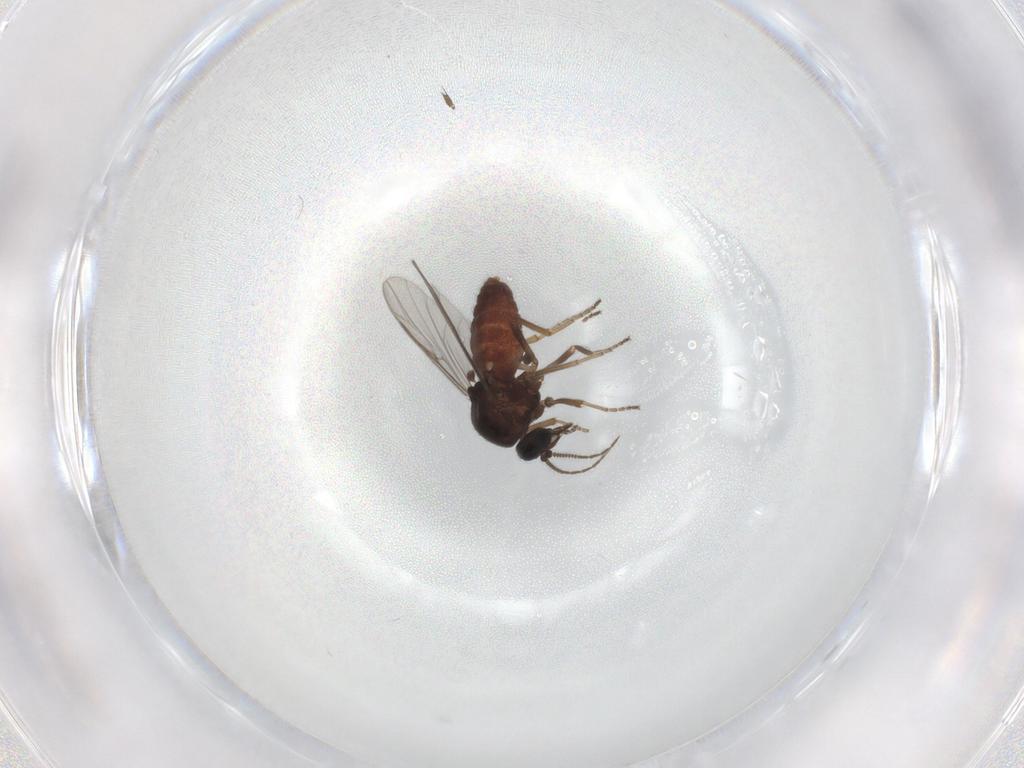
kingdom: Animalia
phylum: Arthropoda
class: Insecta
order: Diptera
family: Ceratopogonidae
